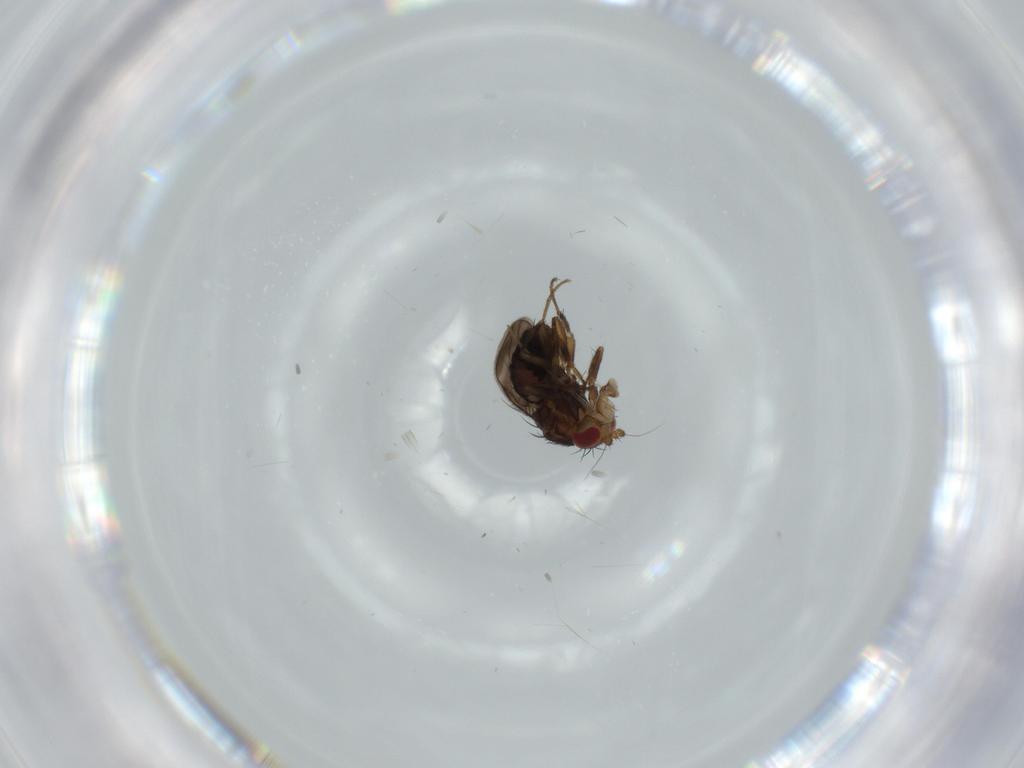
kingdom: Animalia
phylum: Arthropoda
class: Insecta
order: Diptera
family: Sphaeroceridae
